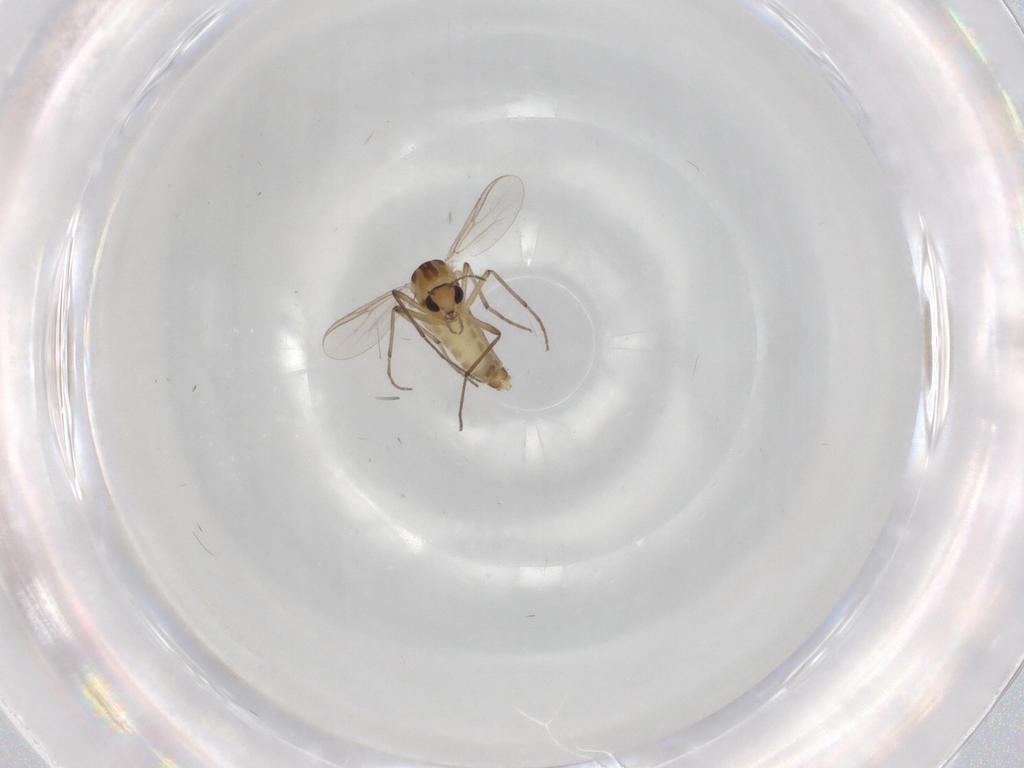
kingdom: Animalia
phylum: Arthropoda
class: Insecta
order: Diptera
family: Chironomidae
